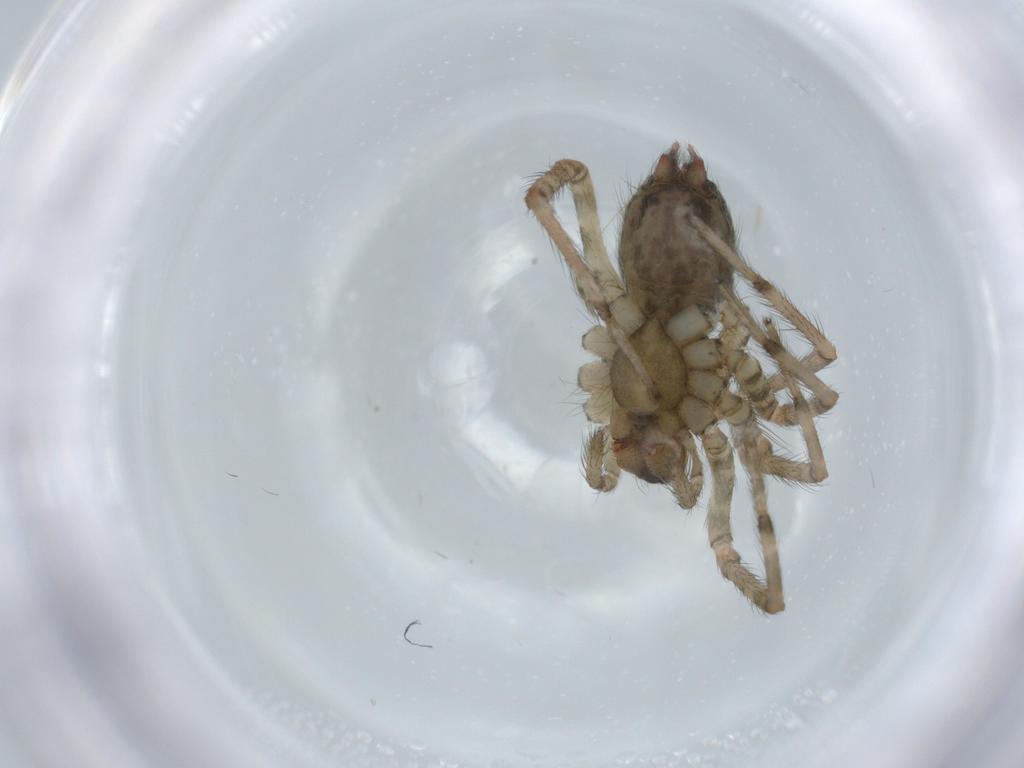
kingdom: Animalia
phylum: Arthropoda
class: Arachnida
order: Araneae
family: Agelenidae
